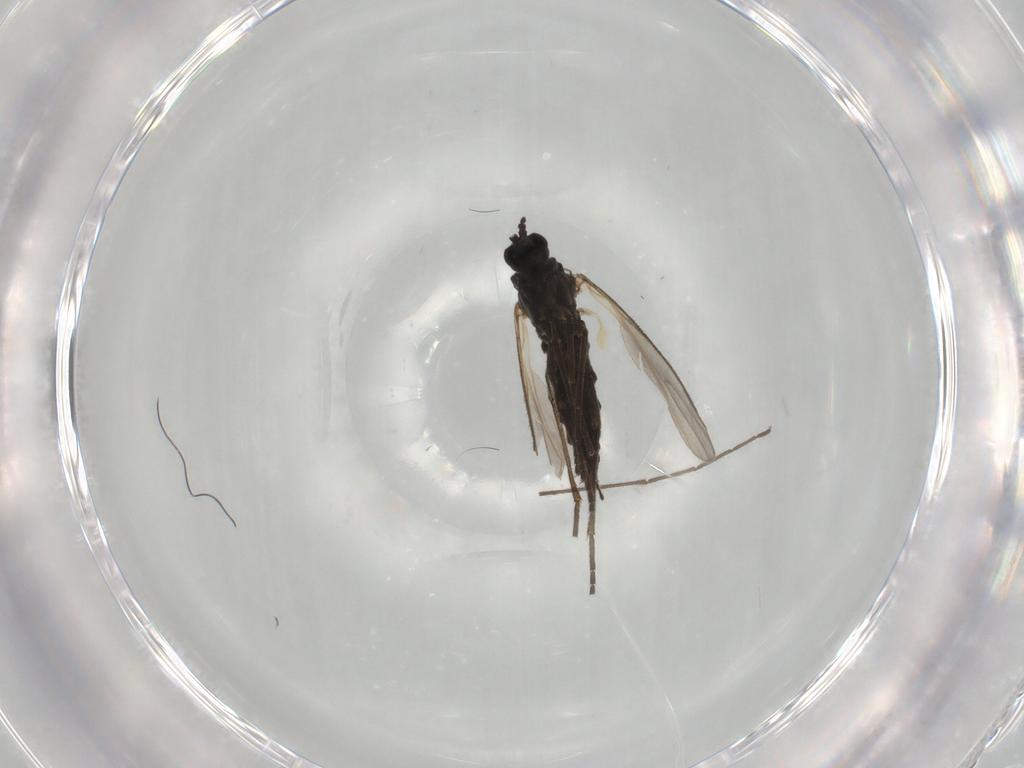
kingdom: Animalia
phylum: Arthropoda
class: Insecta
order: Diptera
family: Sciaridae
